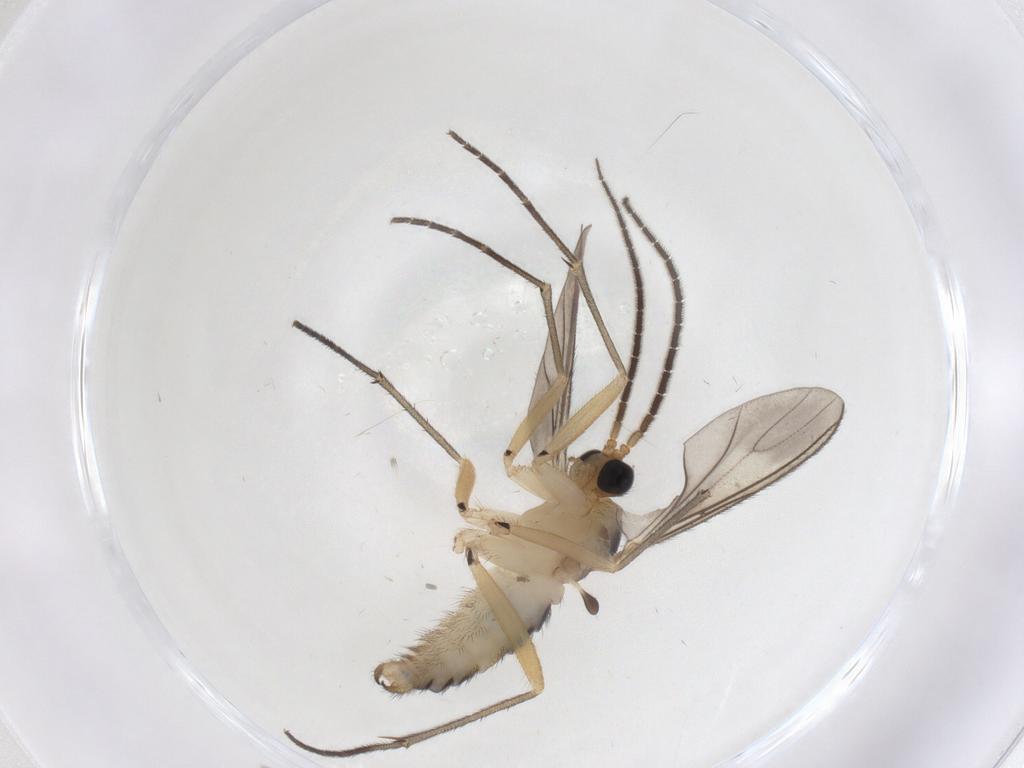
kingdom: Animalia
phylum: Arthropoda
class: Insecta
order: Diptera
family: Sciaridae
